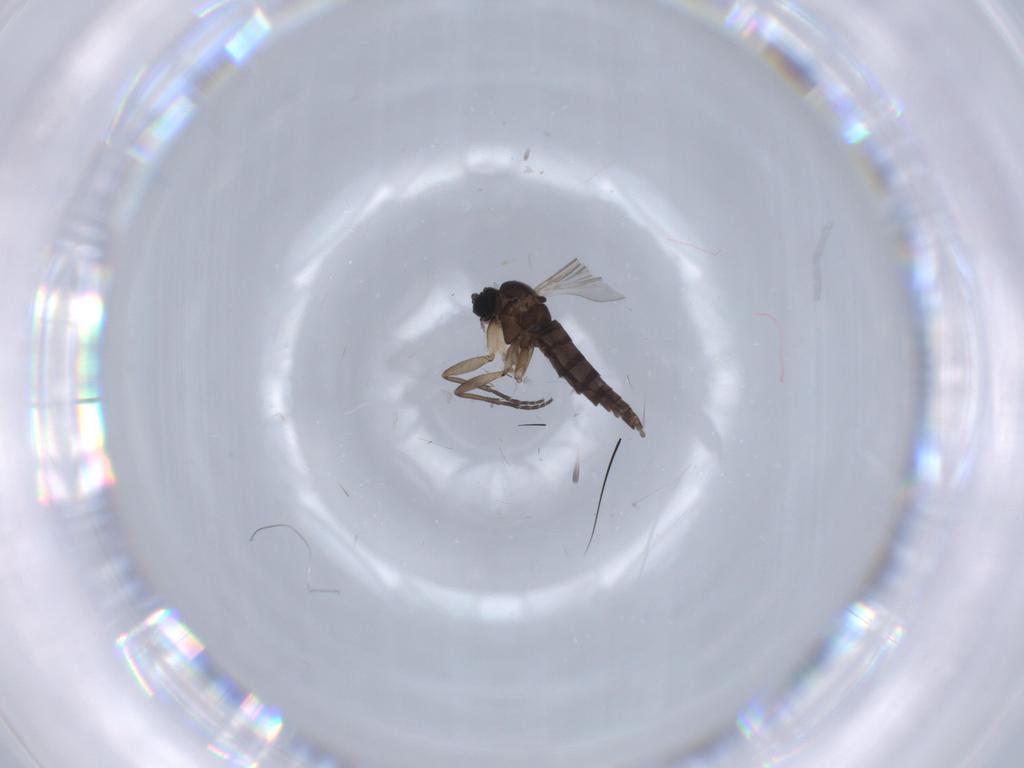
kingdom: Animalia
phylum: Arthropoda
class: Insecta
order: Diptera
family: Sciaridae
